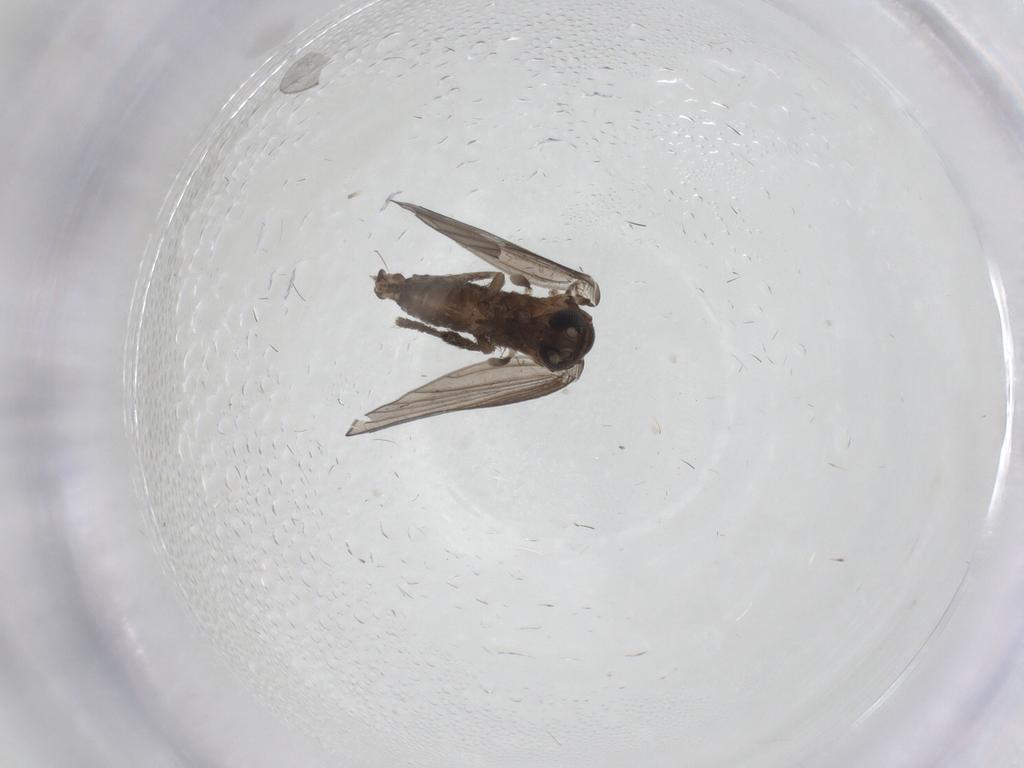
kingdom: Animalia
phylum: Arthropoda
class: Insecta
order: Diptera
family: Psychodidae
